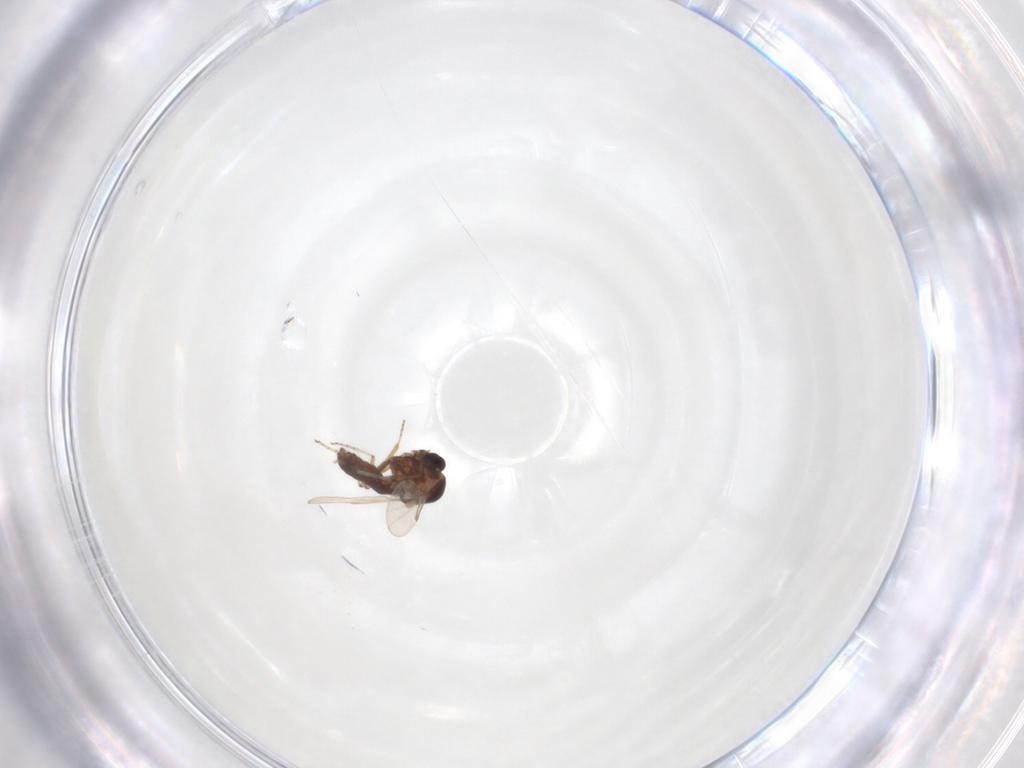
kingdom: Animalia
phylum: Arthropoda
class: Insecta
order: Diptera
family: Ceratopogonidae
